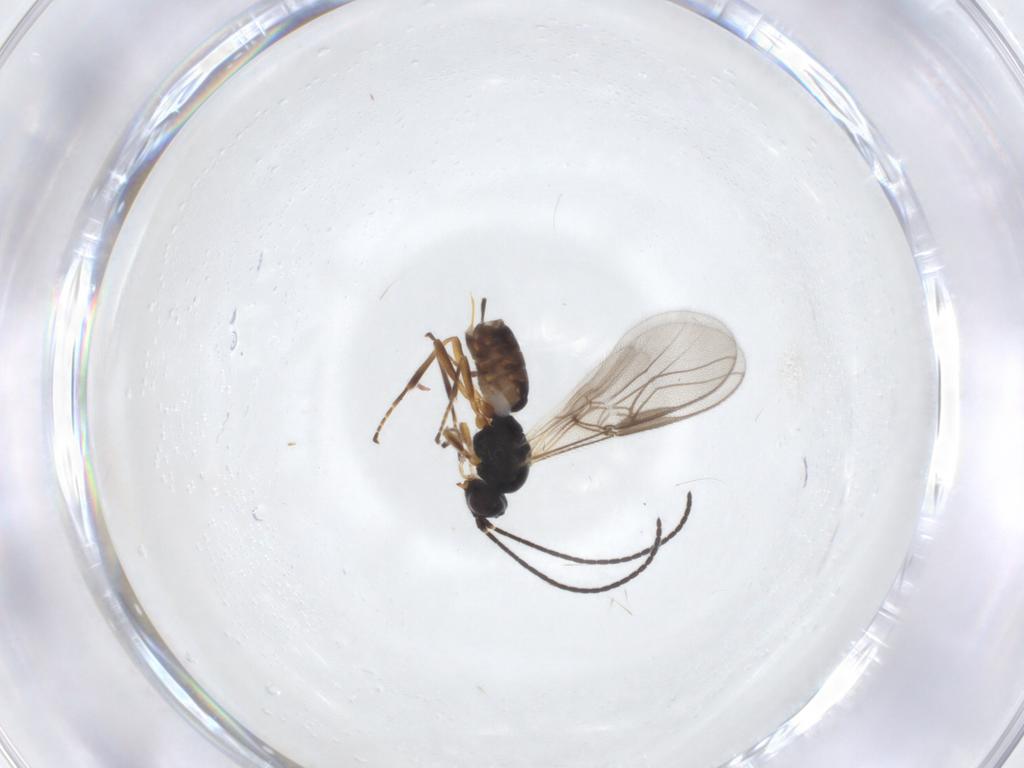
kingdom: Animalia
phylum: Arthropoda
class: Insecta
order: Hymenoptera
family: Braconidae
